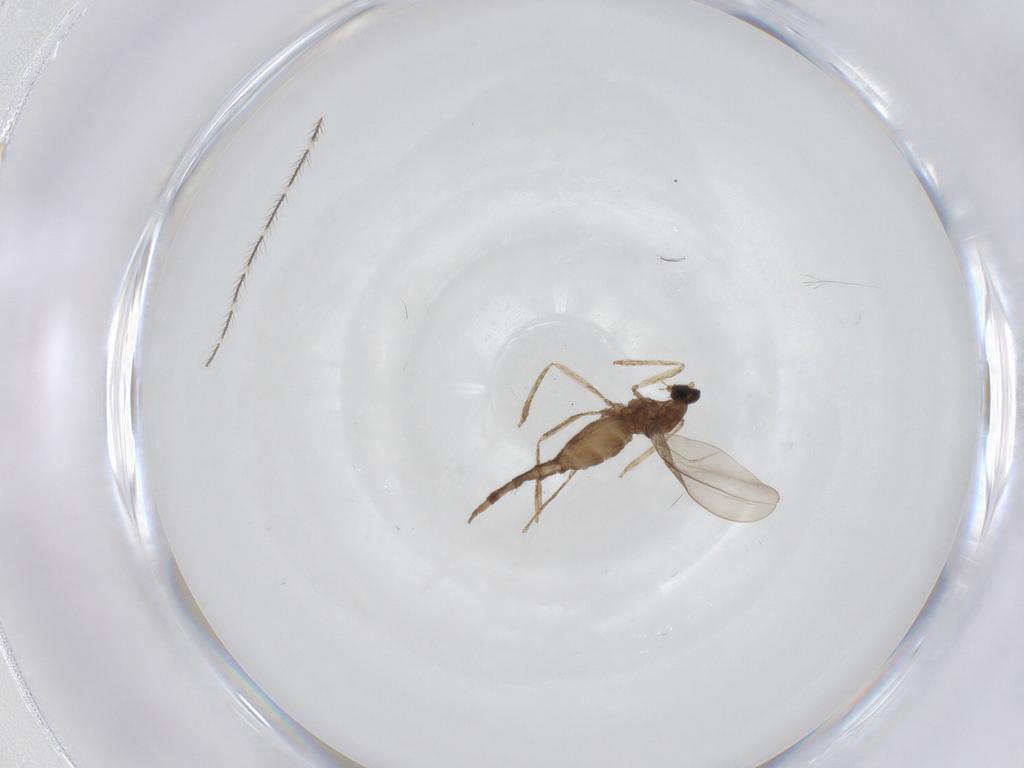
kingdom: Animalia
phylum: Arthropoda
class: Insecta
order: Diptera
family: Cecidomyiidae
